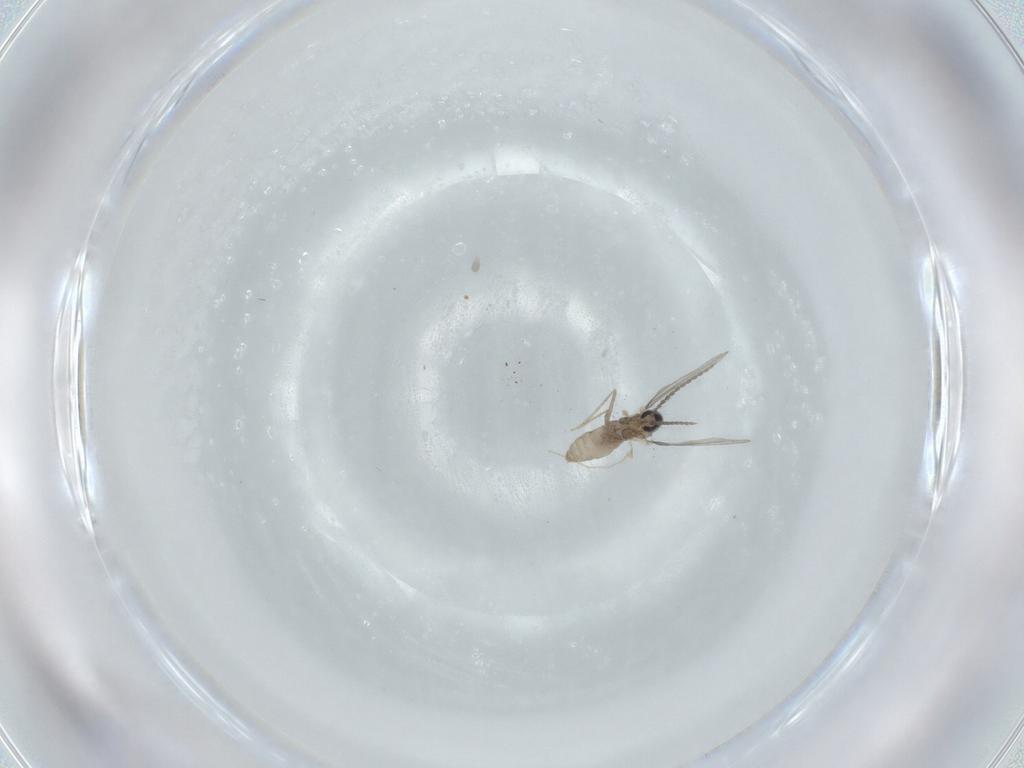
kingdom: Animalia
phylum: Arthropoda
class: Insecta
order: Diptera
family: Cecidomyiidae
